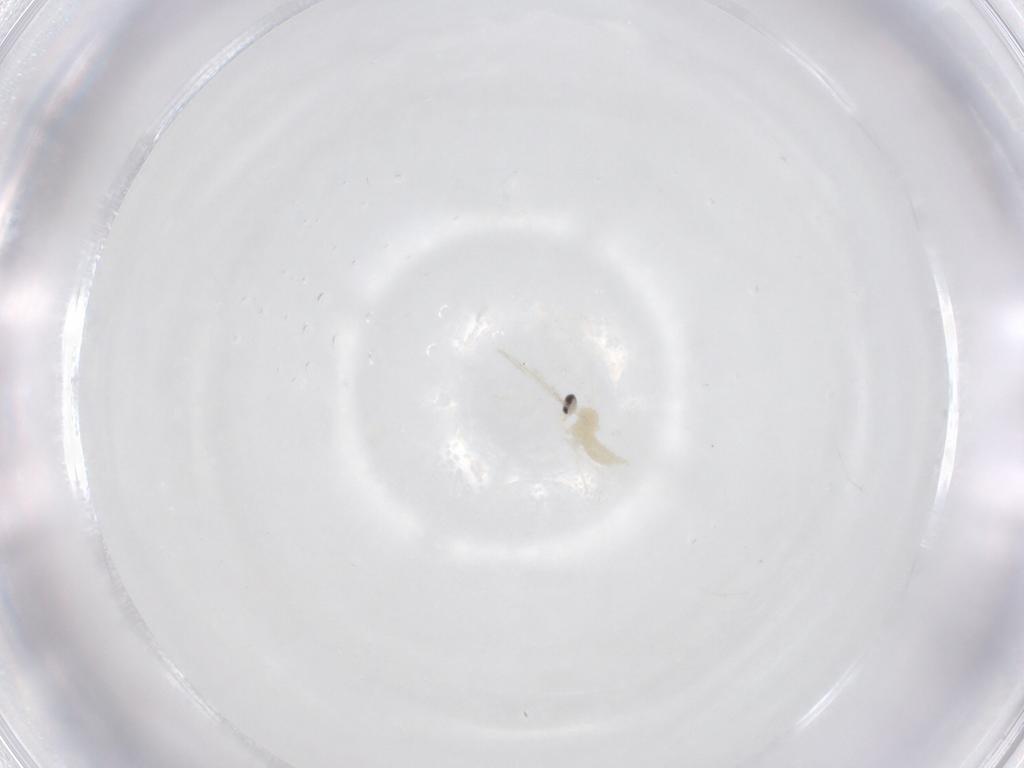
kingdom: Animalia
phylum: Arthropoda
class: Insecta
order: Diptera
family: Cecidomyiidae
